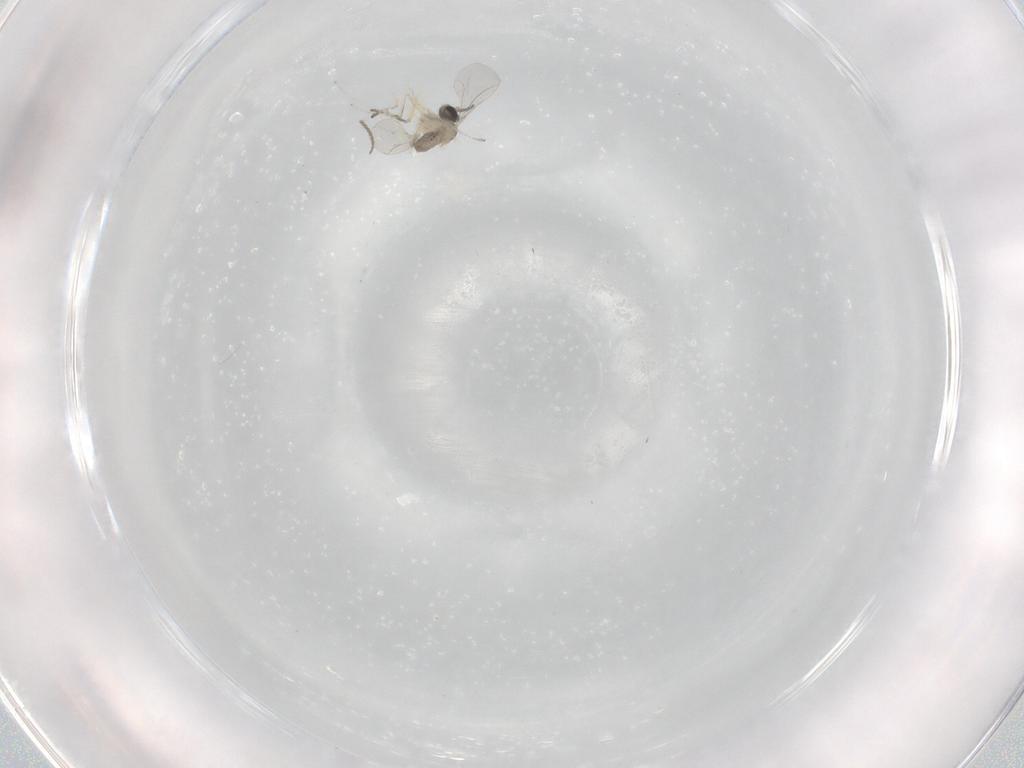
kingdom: Animalia
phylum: Arthropoda
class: Insecta
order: Diptera
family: Cecidomyiidae
